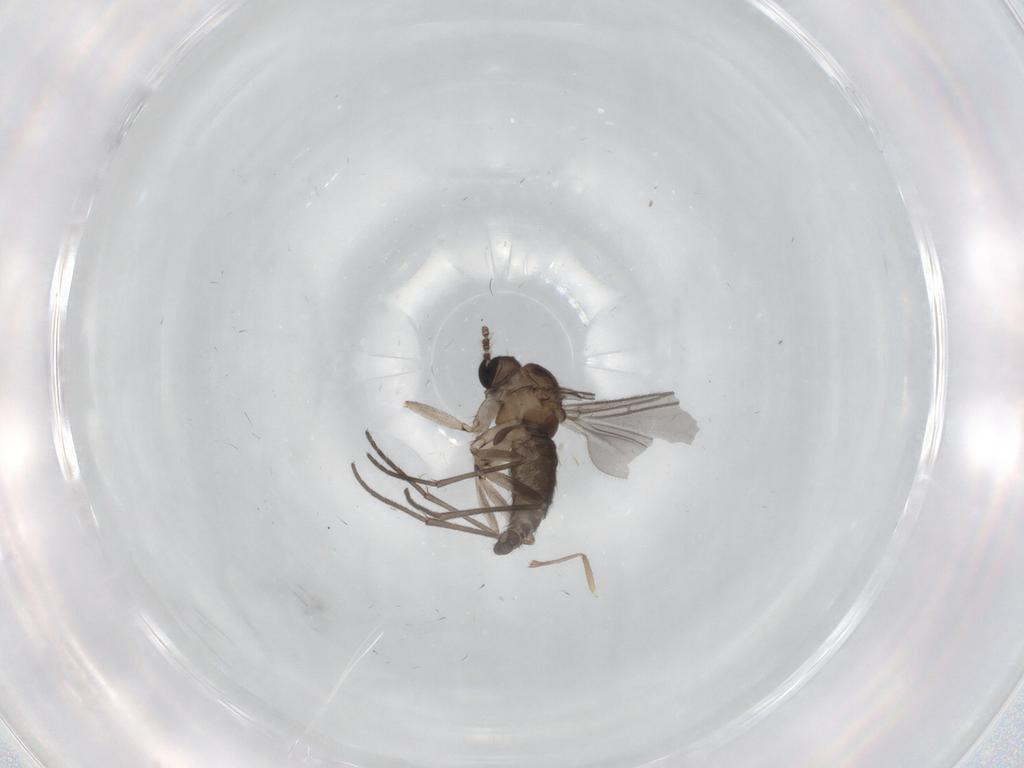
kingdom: Animalia
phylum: Arthropoda
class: Insecta
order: Diptera
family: Sciaridae
